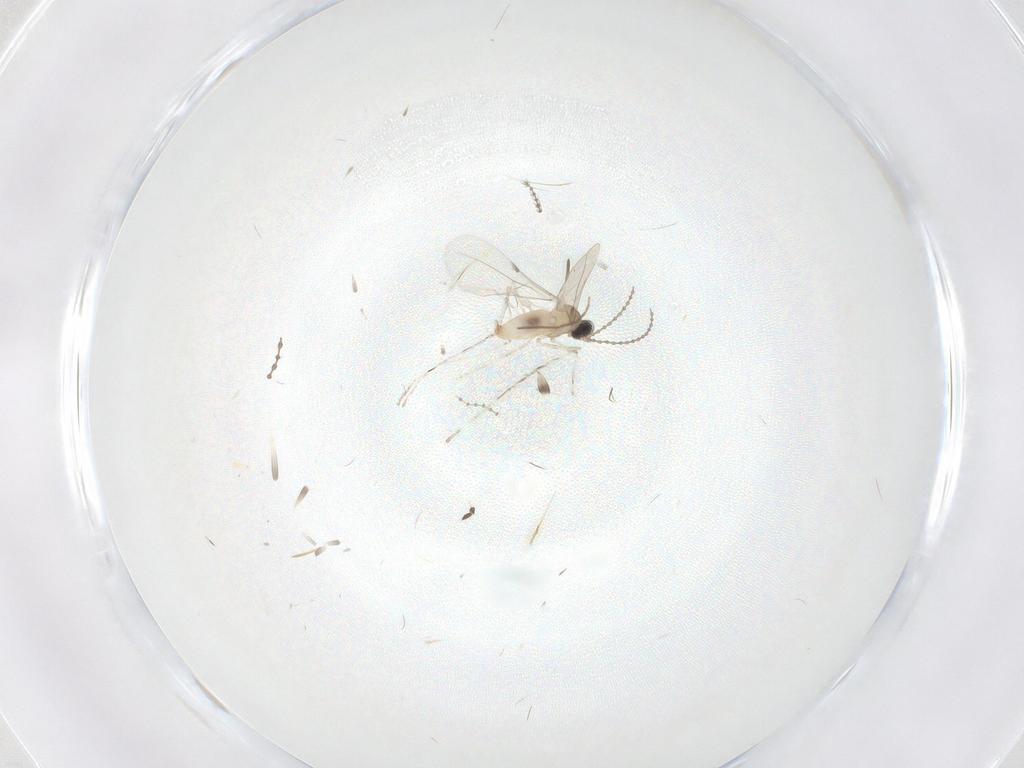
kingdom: Animalia
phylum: Arthropoda
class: Insecta
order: Diptera
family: Cecidomyiidae
